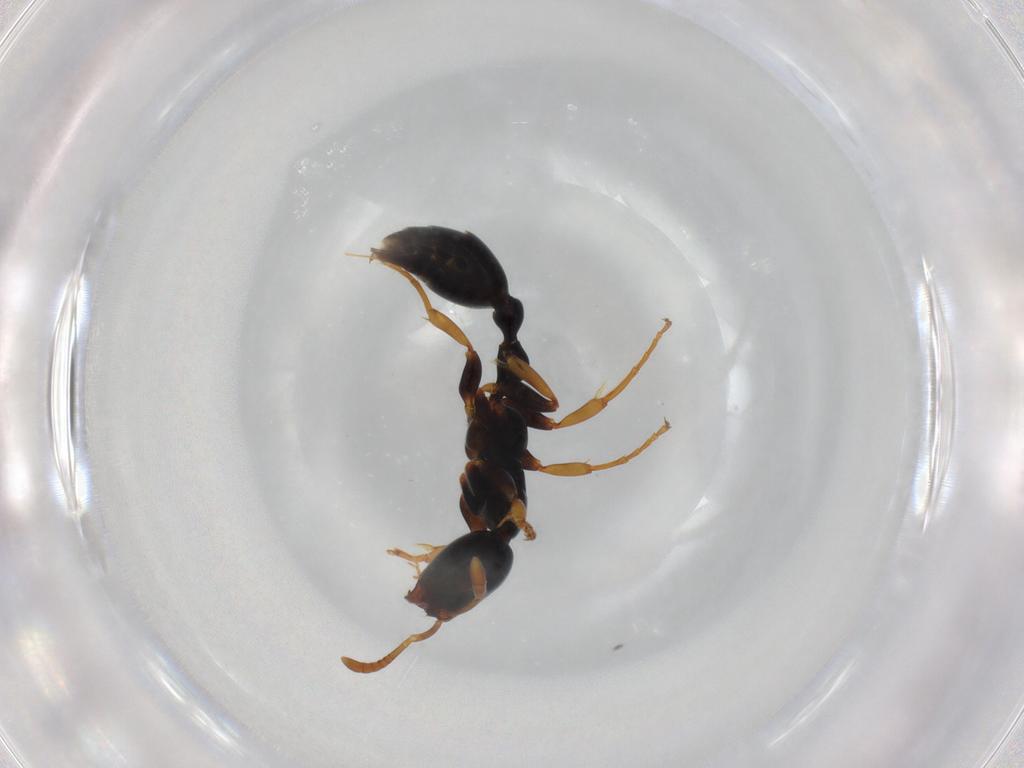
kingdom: Animalia
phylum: Arthropoda
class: Insecta
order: Hymenoptera
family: Formicidae
